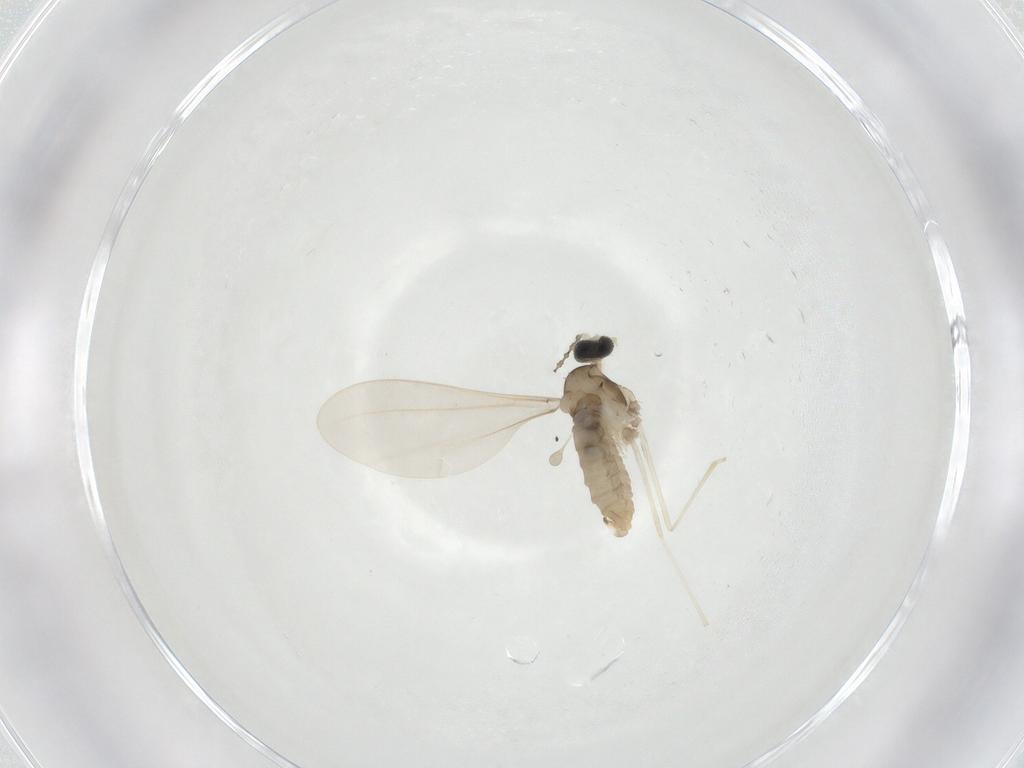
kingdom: Animalia
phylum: Arthropoda
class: Insecta
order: Diptera
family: Cecidomyiidae
